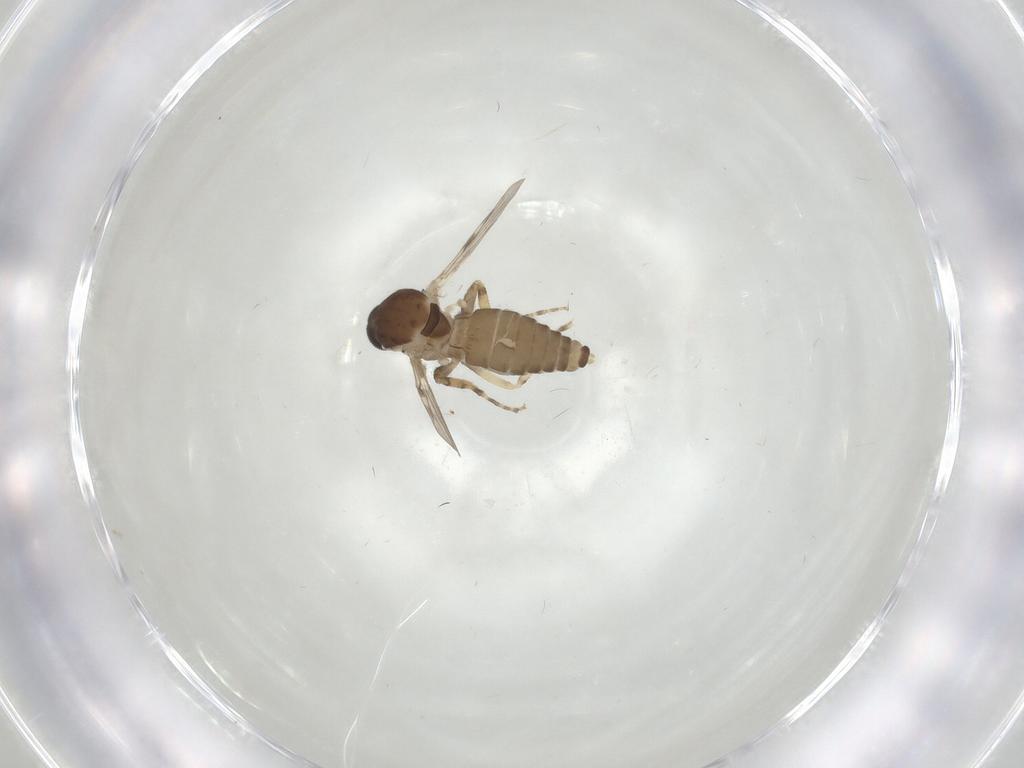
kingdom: Animalia
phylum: Arthropoda
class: Insecta
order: Diptera
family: Ceratopogonidae
